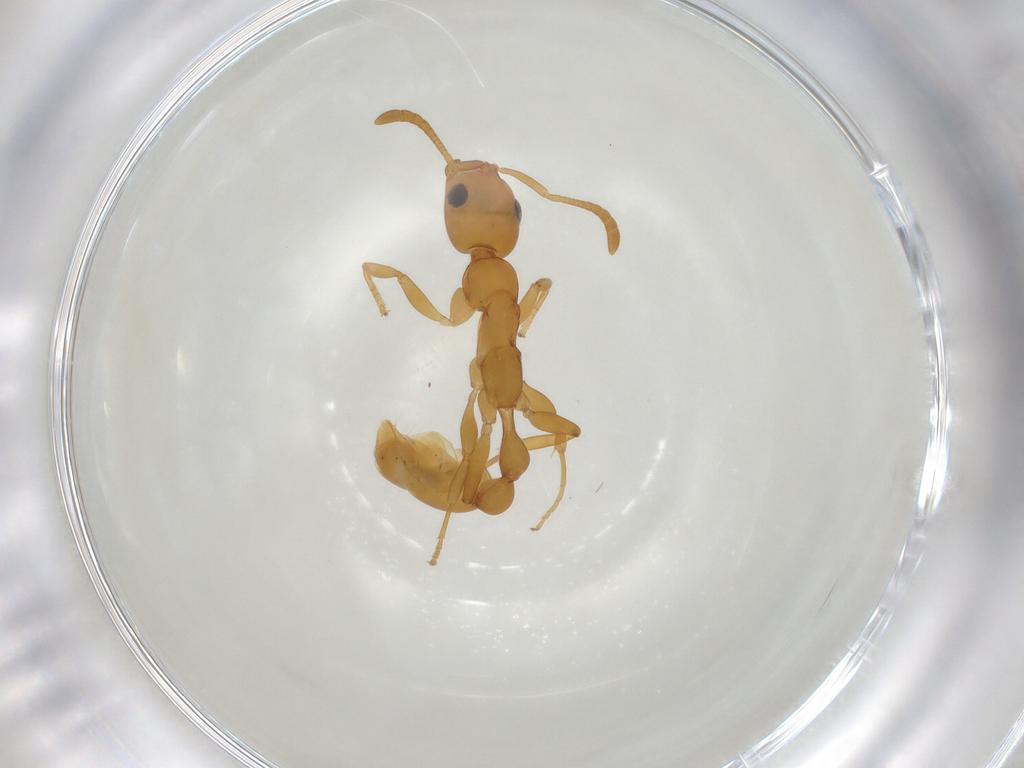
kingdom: Animalia
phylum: Arthropoda
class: Insecta
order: Hymenoptera
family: Formicidae
